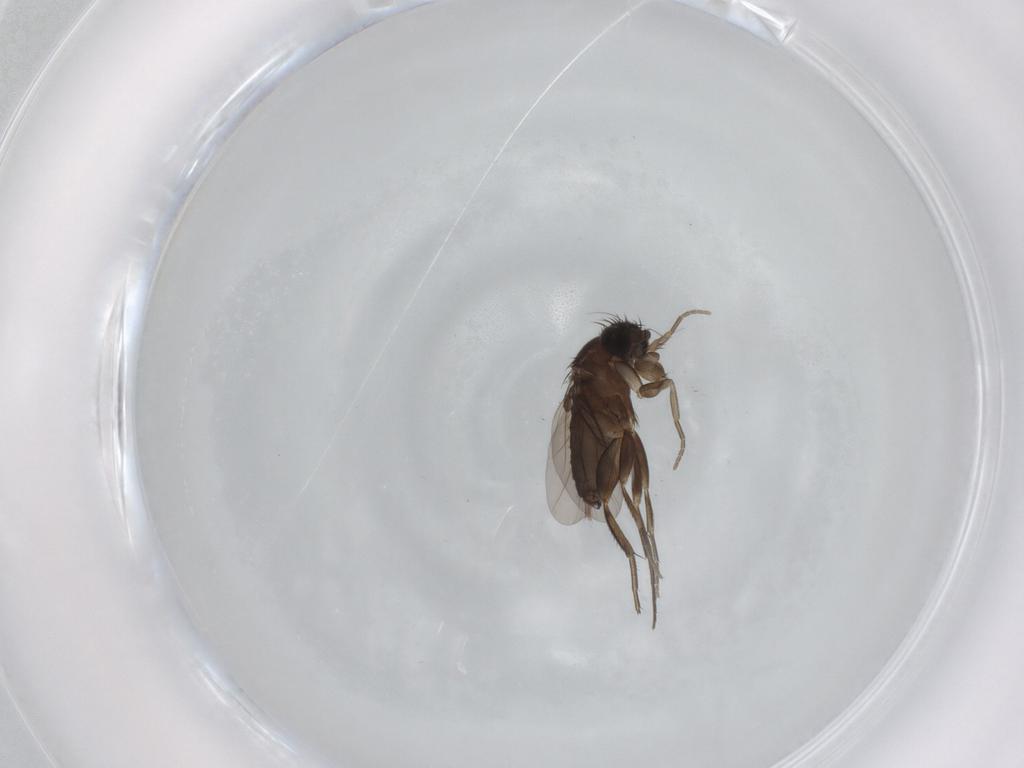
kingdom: Animalia
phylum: Arthropoda
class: Insecta
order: Diptera
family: Phoridae
